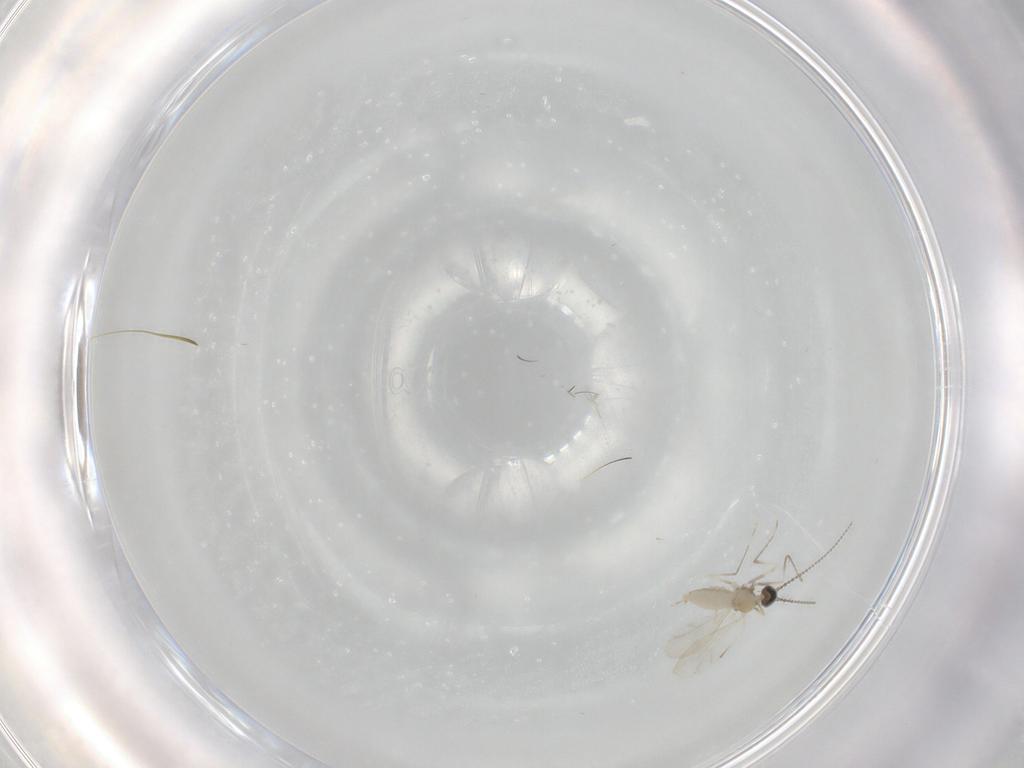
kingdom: Animalia
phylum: Arthropoda
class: Insecta
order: Diptera
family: Cecidomyiidae
